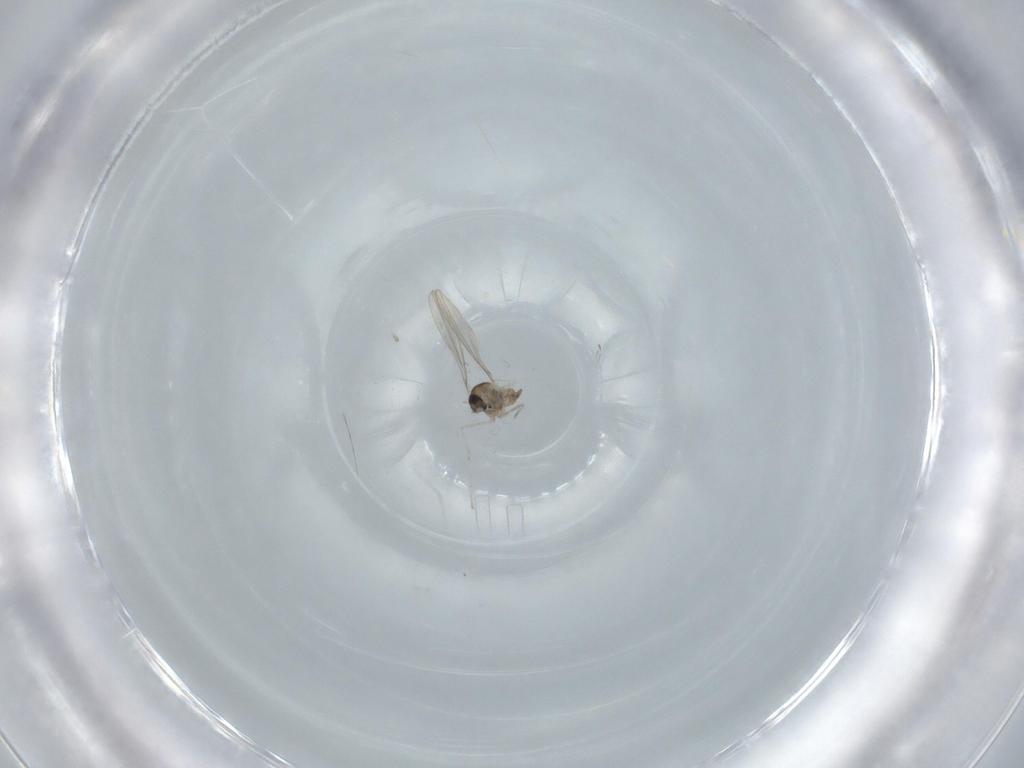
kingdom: Animalia
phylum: Arthropoda
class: Insecta
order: Diptera
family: Cecidomyiidae
